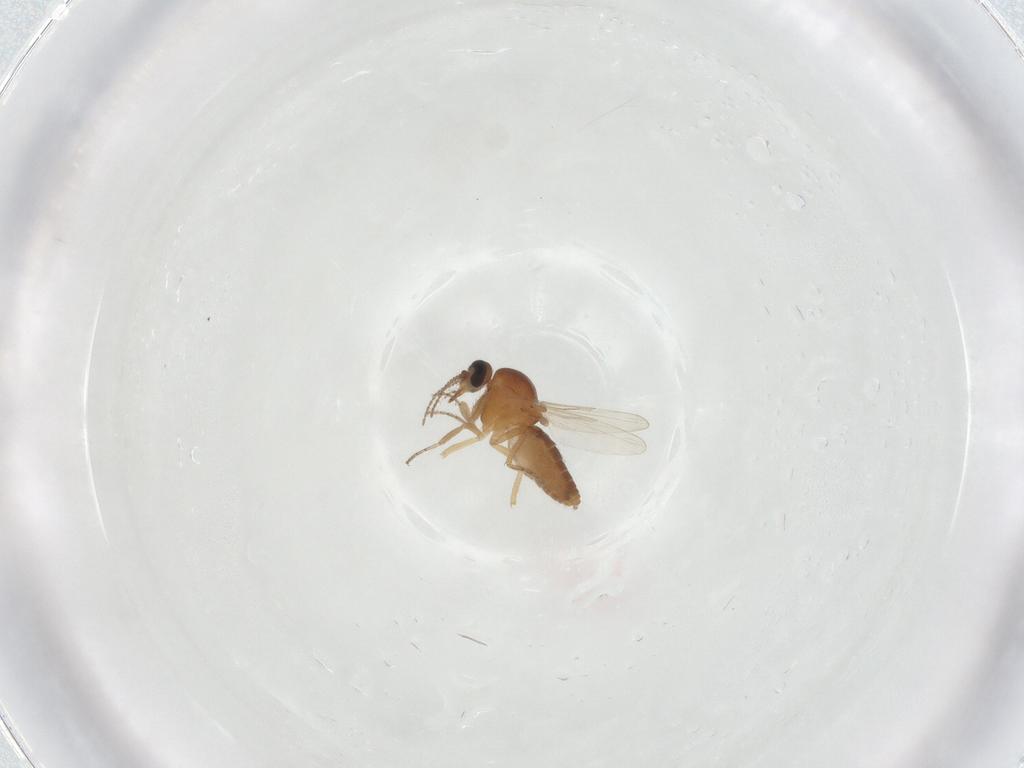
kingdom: Animalia
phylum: Arthropoda
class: Insecta
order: Diptera
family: Ceratopogonidae
